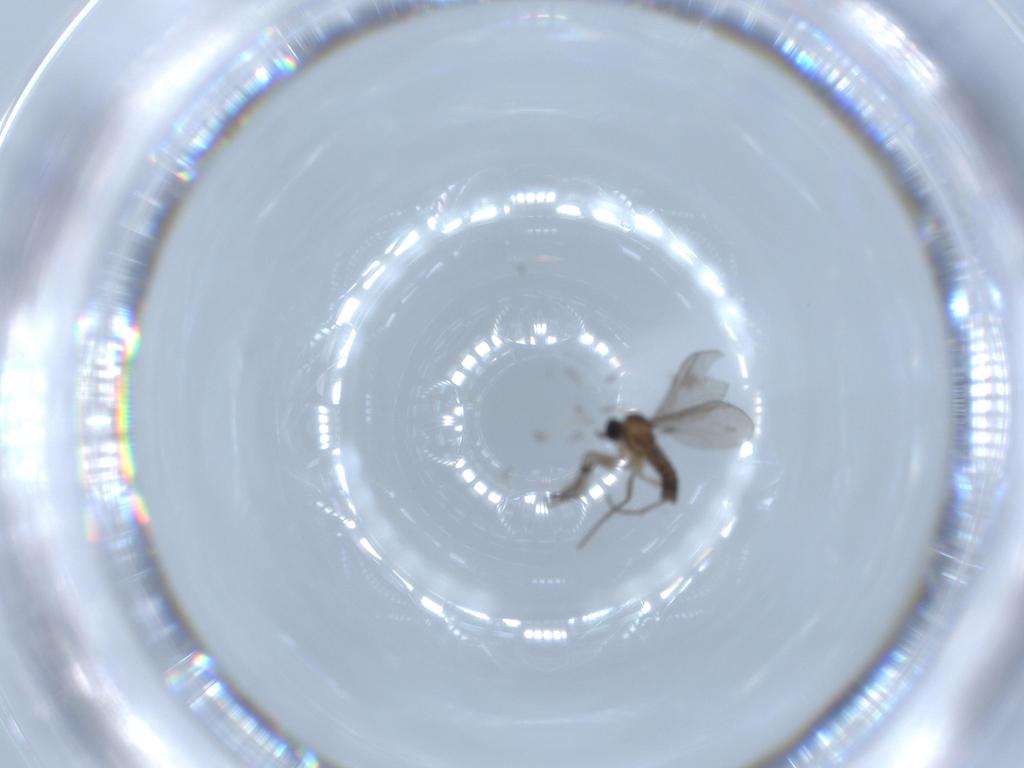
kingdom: Animalia
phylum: Arthropoda
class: Insecta
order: Diptera
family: Cecidomyiidae
